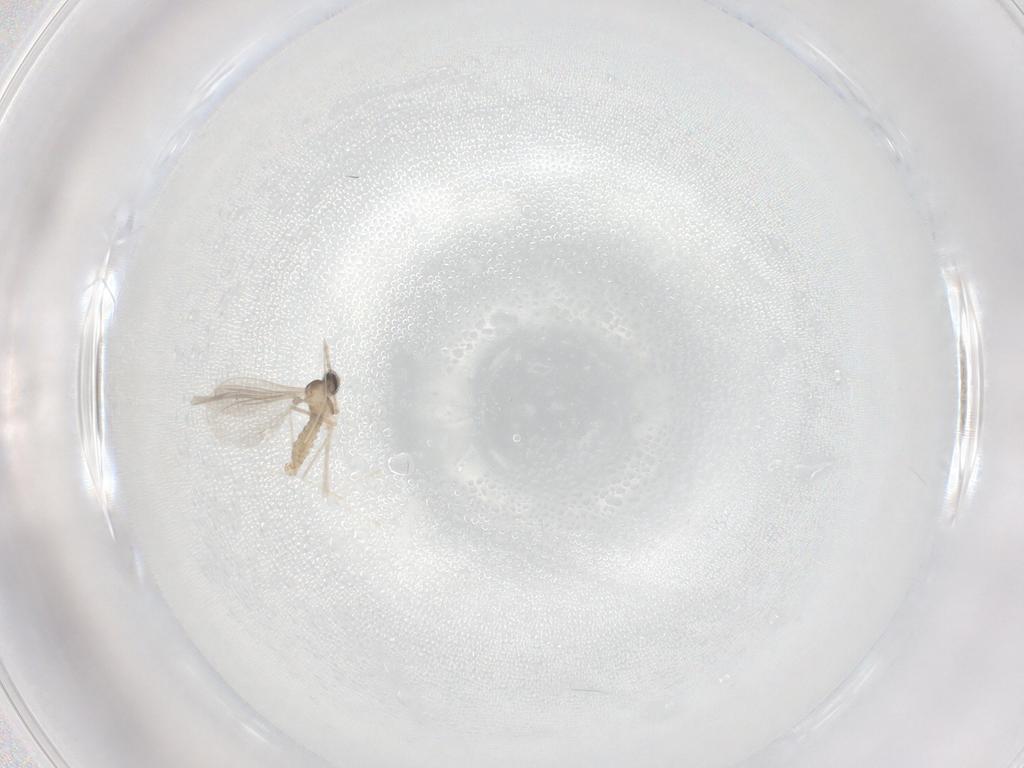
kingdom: Animalia
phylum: Arthropoda
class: Insecta
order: Diptera
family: Cecidomyiidae
